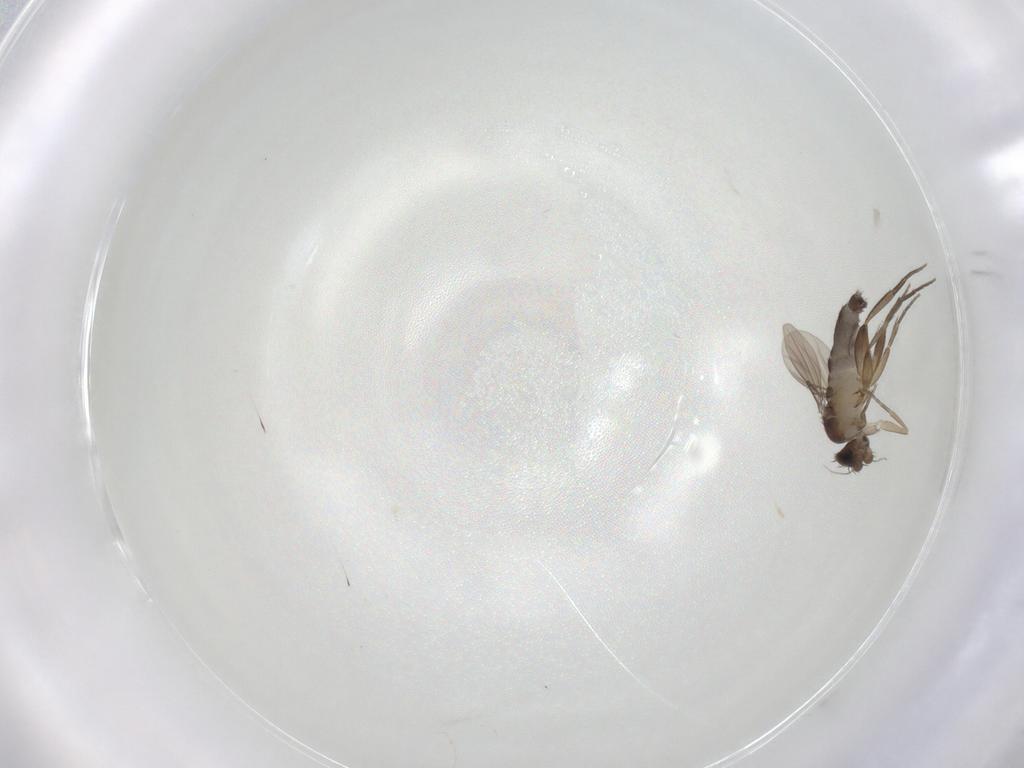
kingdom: Animalia
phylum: Arthropoda
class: Insecta
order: Diptera
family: Phoridae
